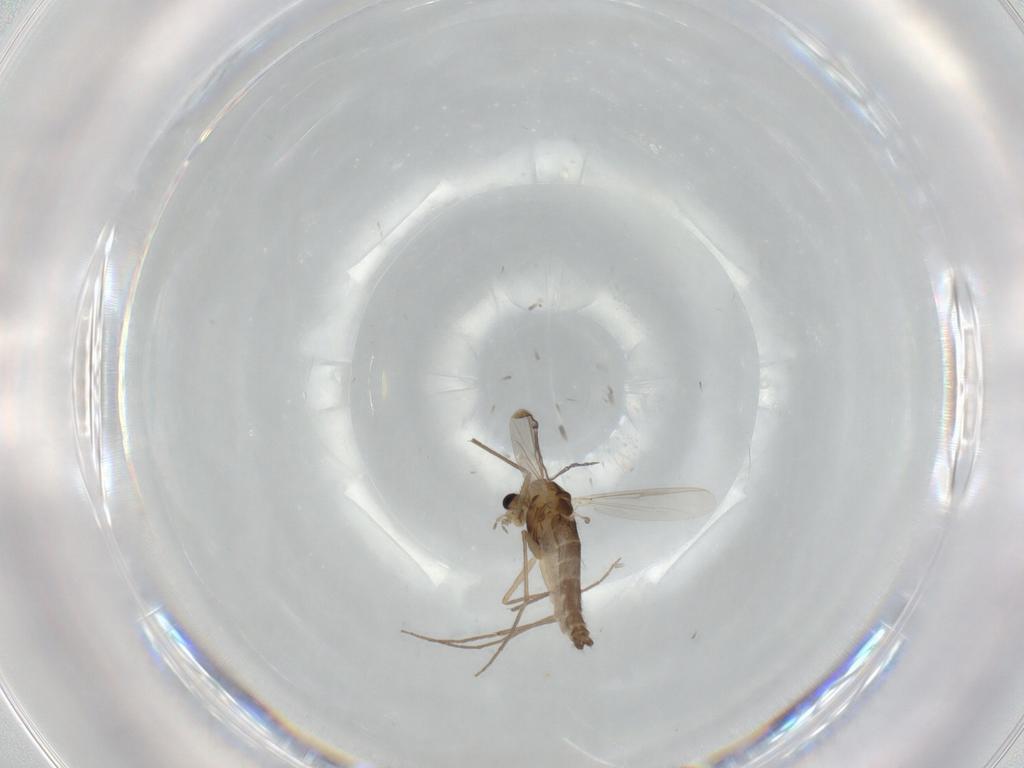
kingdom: Animalia
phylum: Arthropoda
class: Insecta
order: Diptera
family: Chironomidae
